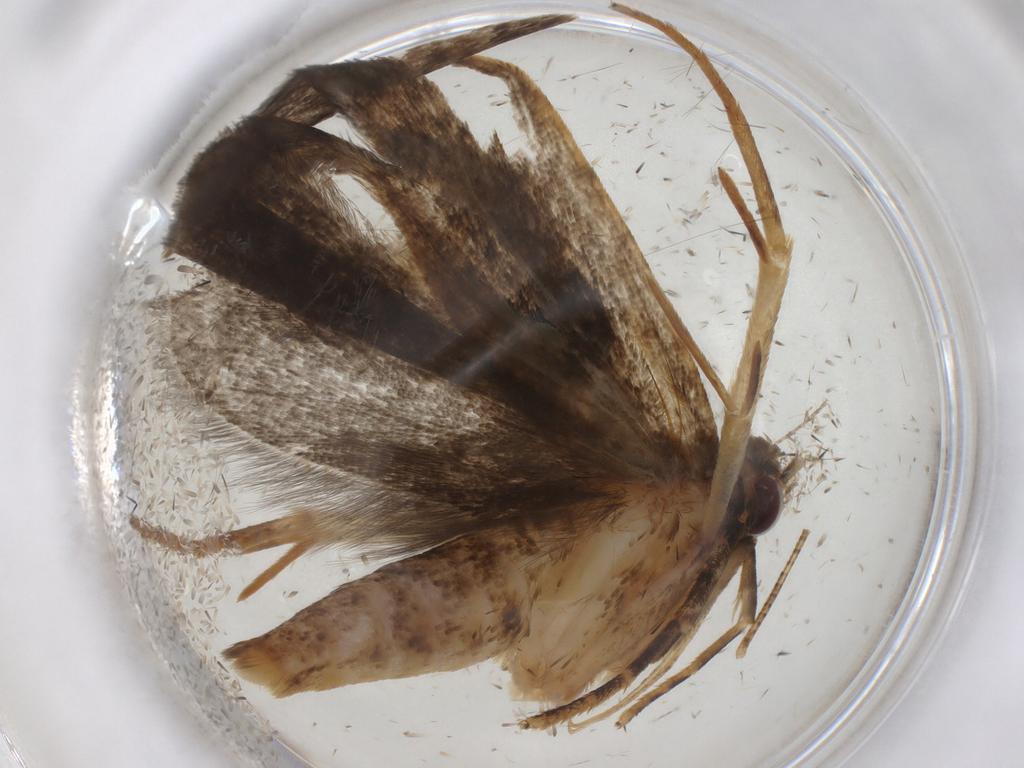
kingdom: Animalia
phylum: Arthropoda
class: Insecta
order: Lepidoptera
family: Gelechiidae
